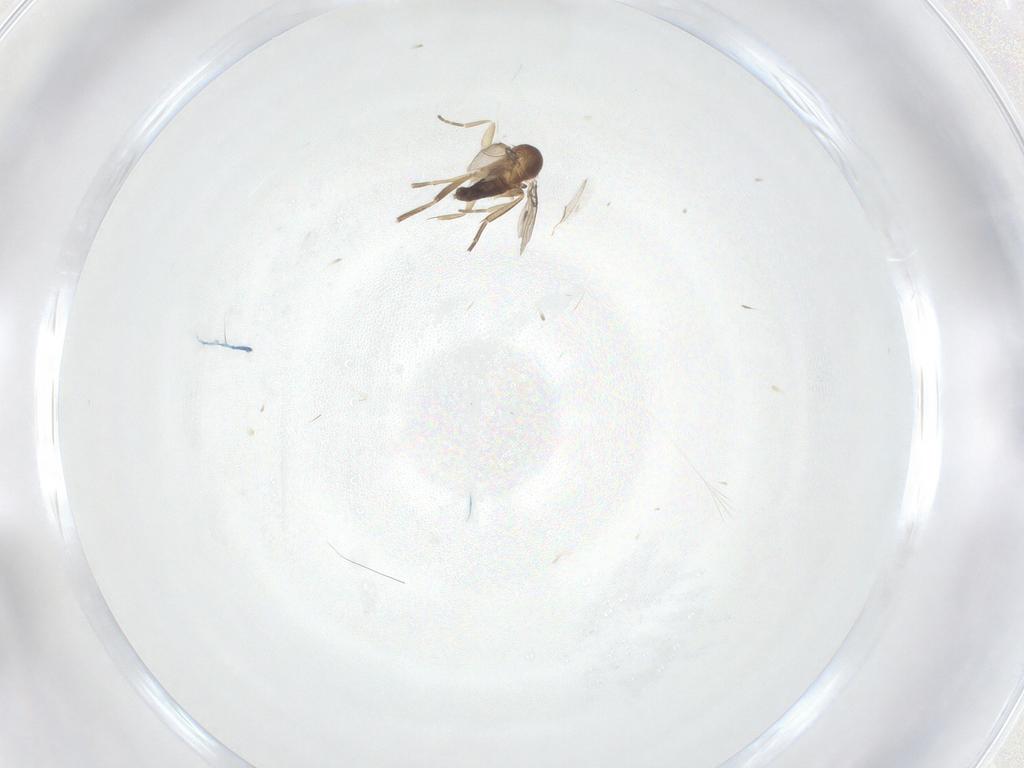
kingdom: Animalia
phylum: Arthropoda
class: Insecta
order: Diptera
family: Phoridae
